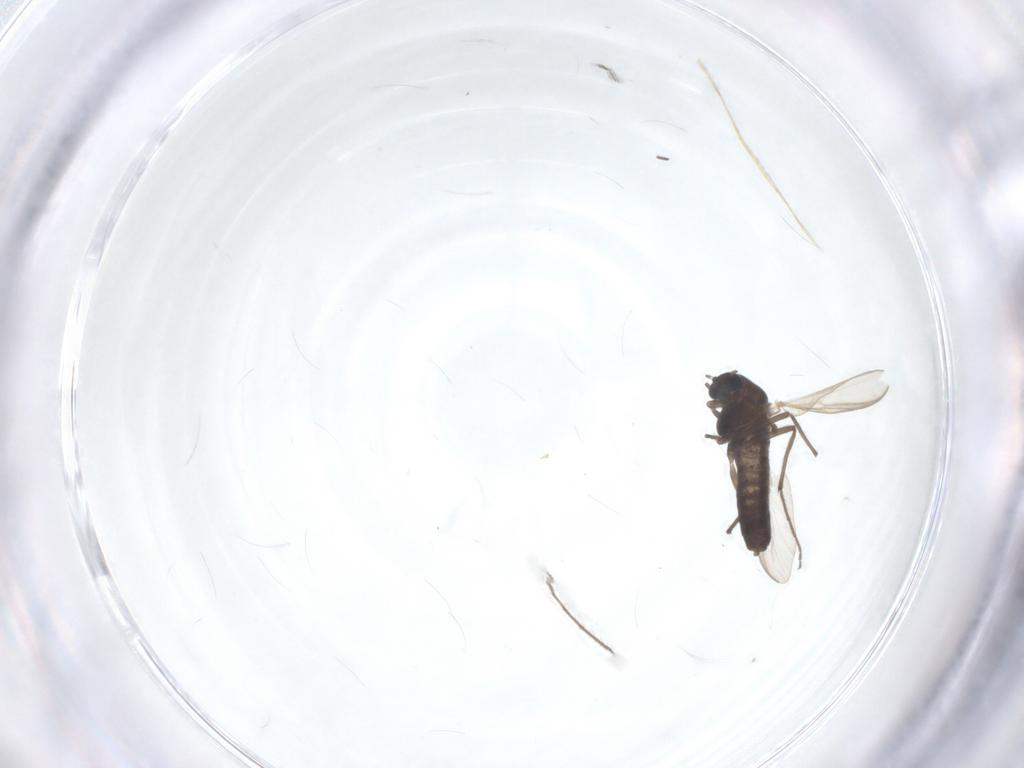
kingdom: Animalia
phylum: Arthropoda
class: Insecta
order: Diptera
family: Chironomidae
